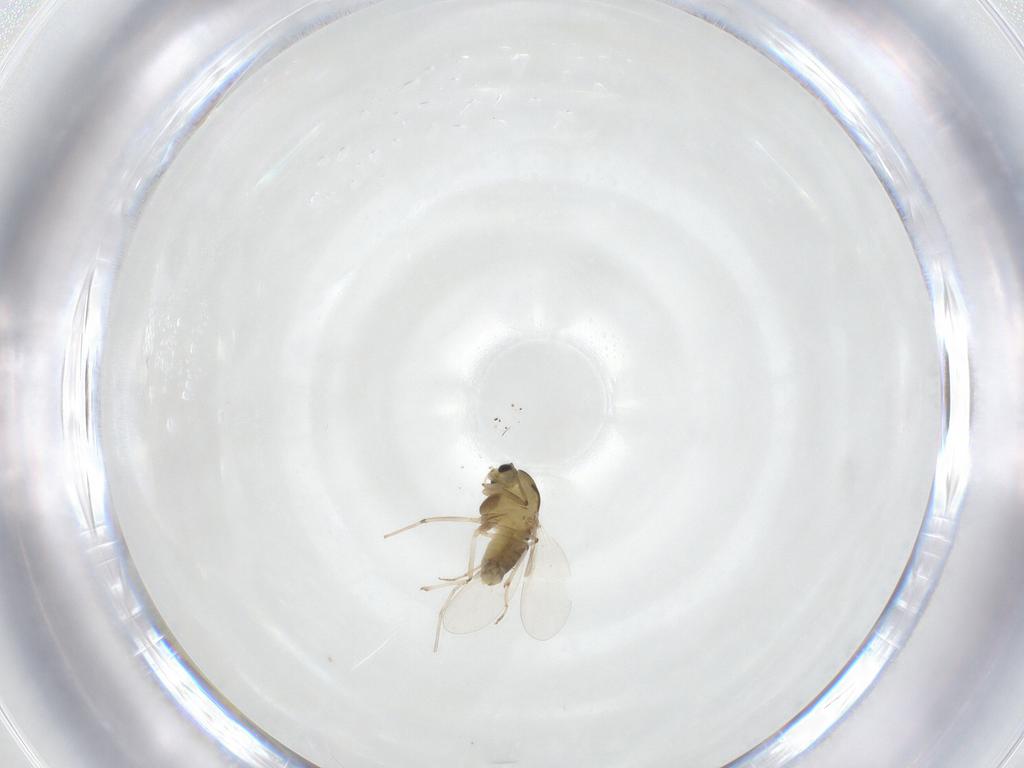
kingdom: Animalia
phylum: Arthropoda
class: Insecta
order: Diptera
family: Chironomidae
